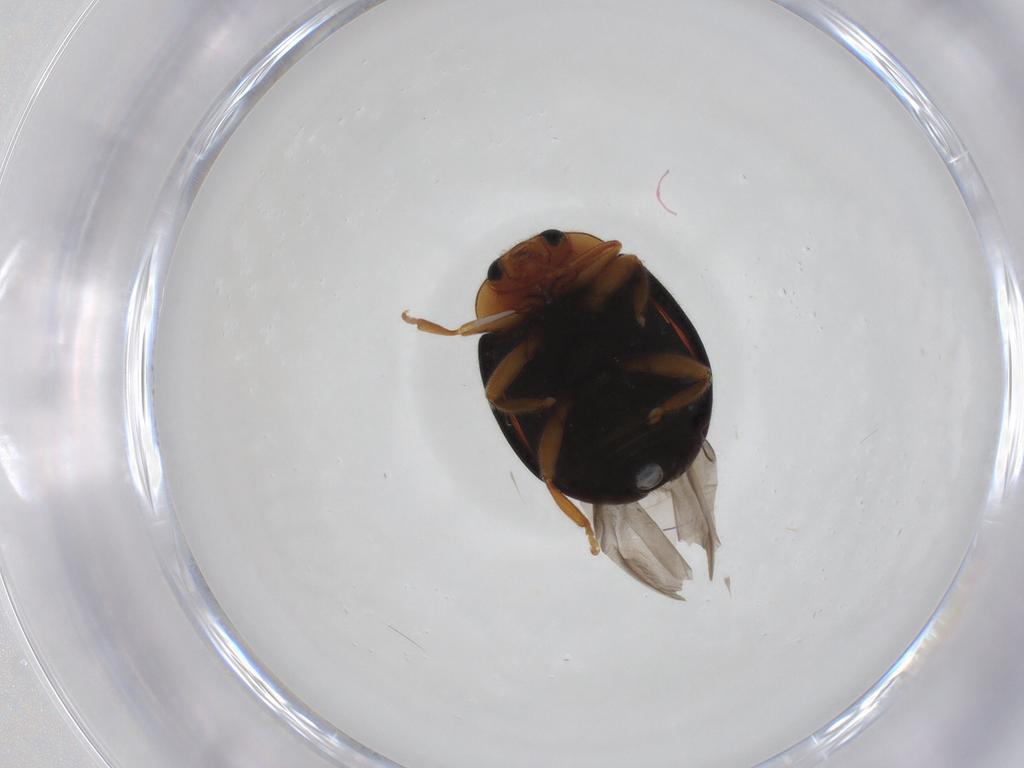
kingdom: Animalia
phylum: Arthropoda
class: Insecta
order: Coleoptera
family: Coccinellidae
